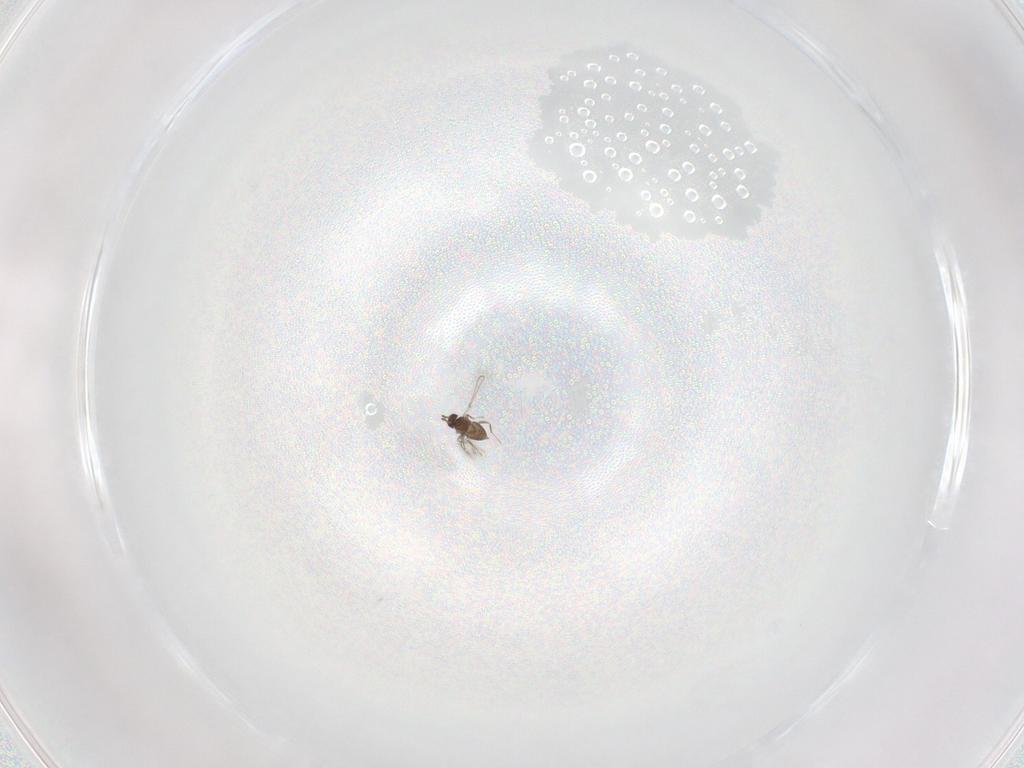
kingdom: Animalia
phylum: Arthropoda
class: Insecta
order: Hymenoptera
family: Mymaridae
